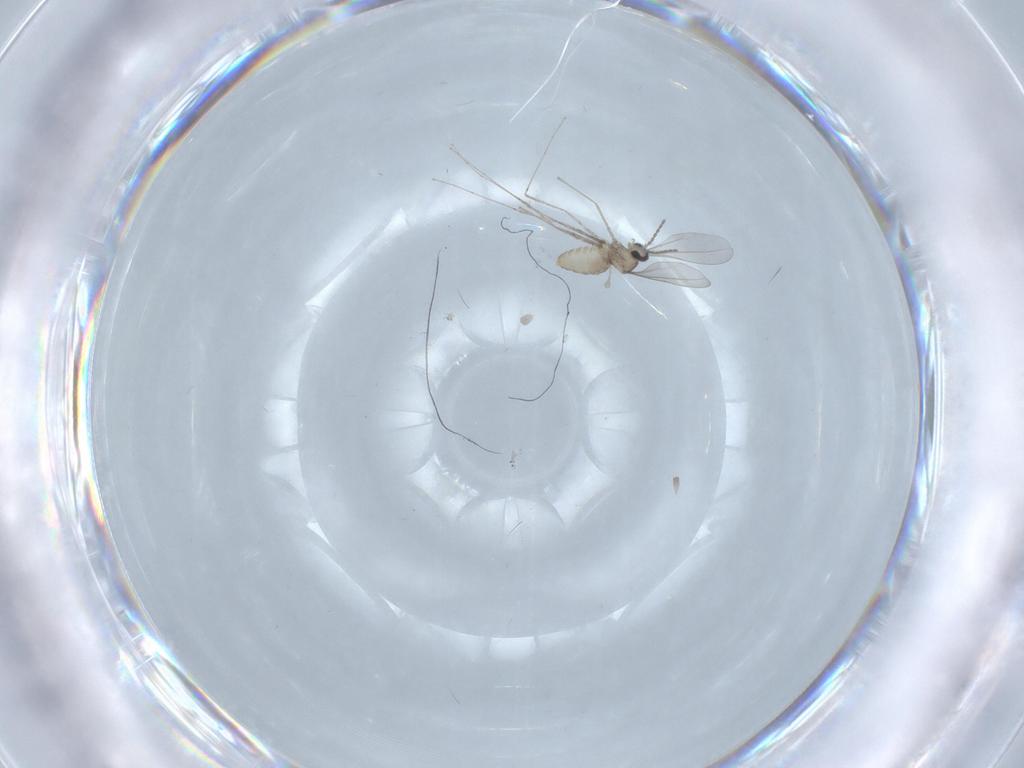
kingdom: Animalia
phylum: Arthropoda
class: Insecta
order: Diptera
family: Cecidomyiidae
